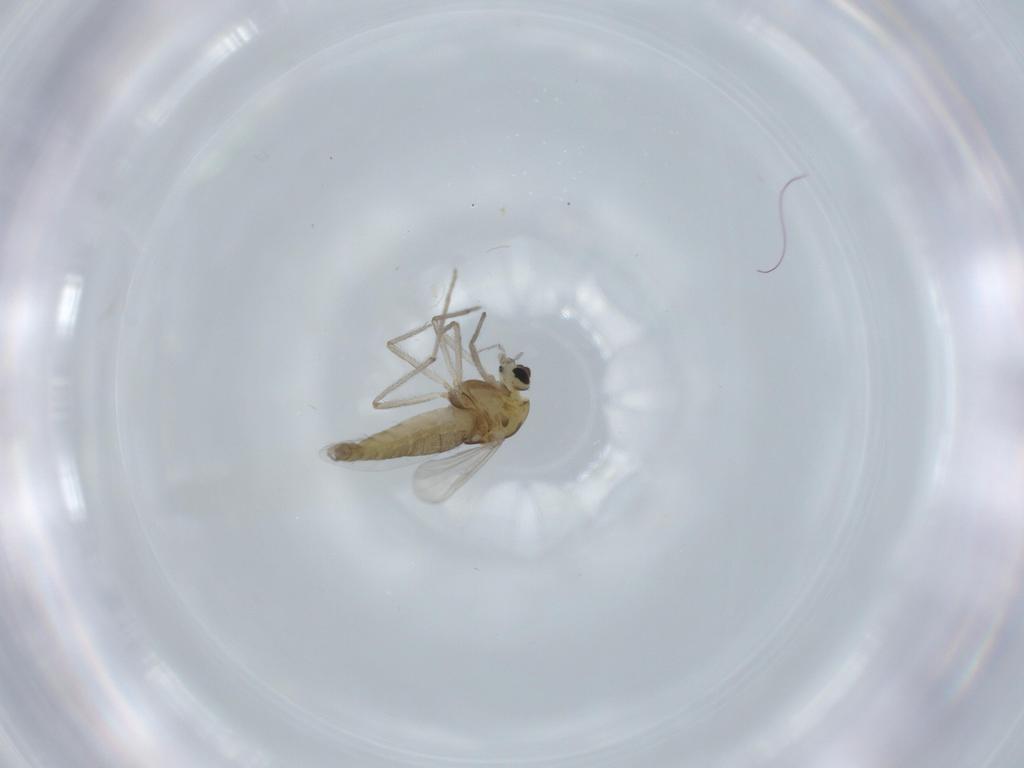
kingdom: Animalia
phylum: Arthropoda
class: Insecta
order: Diptera
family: Chironomidae
